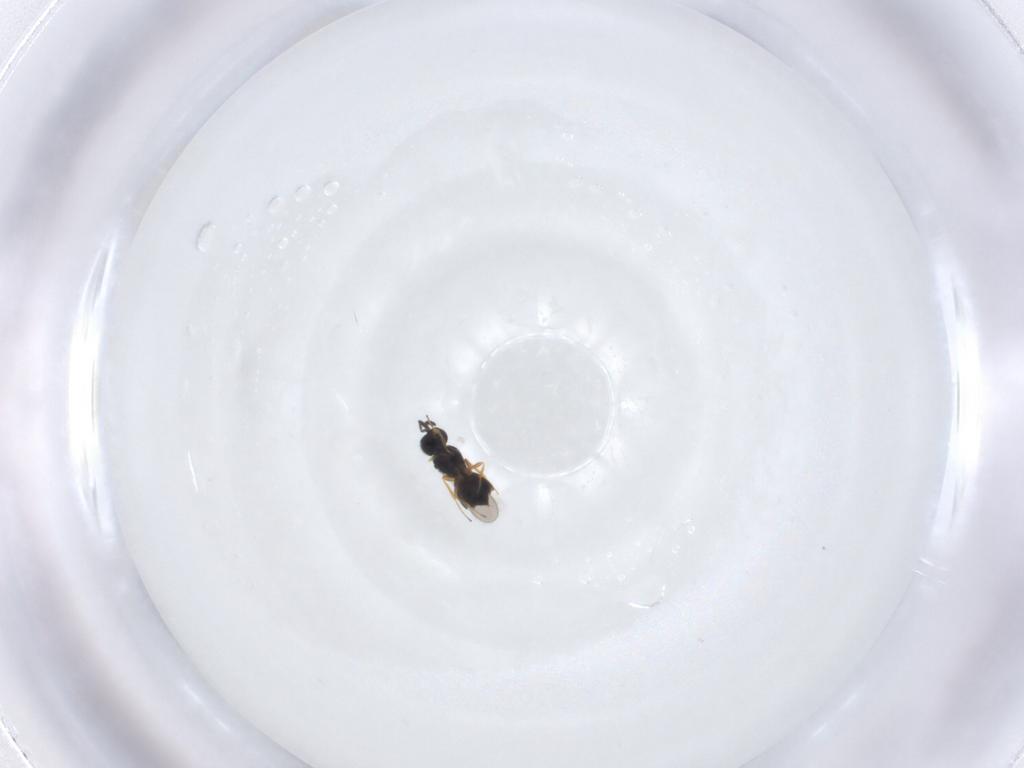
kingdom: Animalia
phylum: Arthropoda
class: Insecta
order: Hymenoptera
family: Scelionidae
